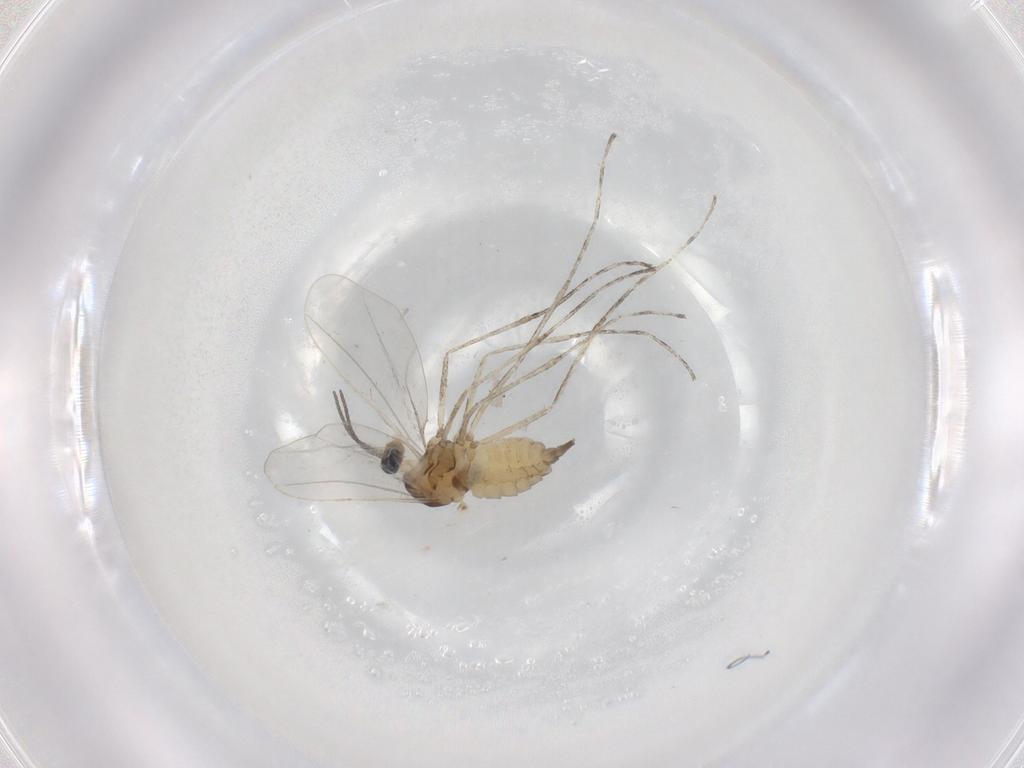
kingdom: Animalia
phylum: Arthropoda
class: Insecta
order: Diptera
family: Cecidomyiidae
